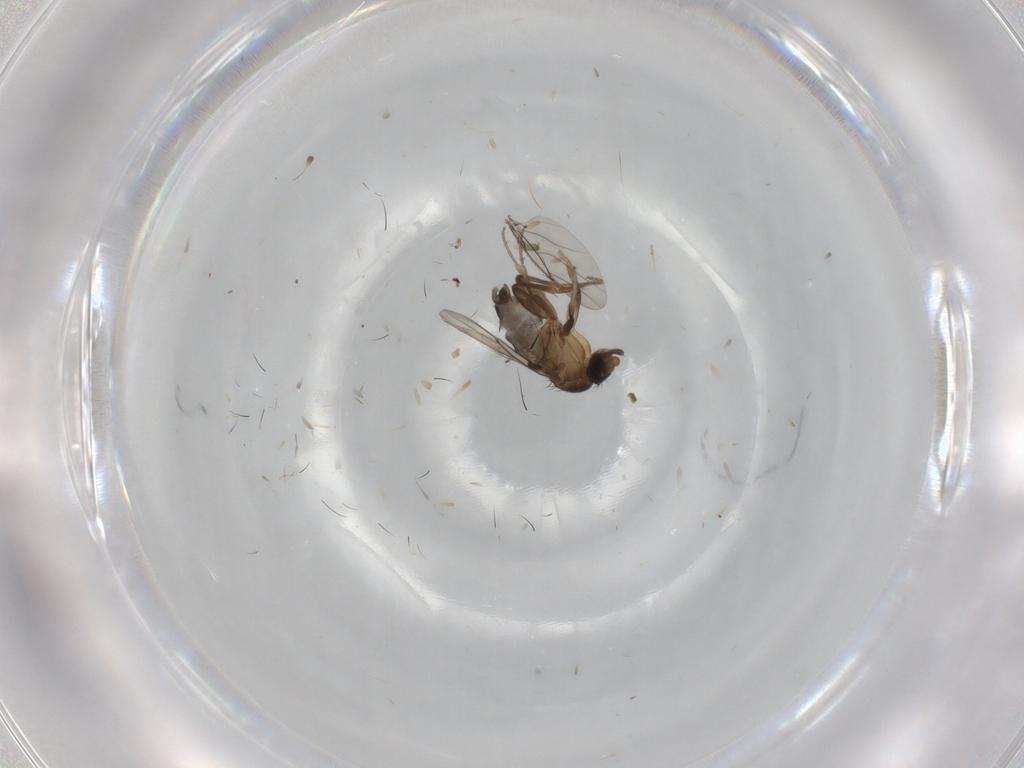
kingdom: Animalia
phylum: Arthropoda
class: Insecta
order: Diptera
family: Phoridae
